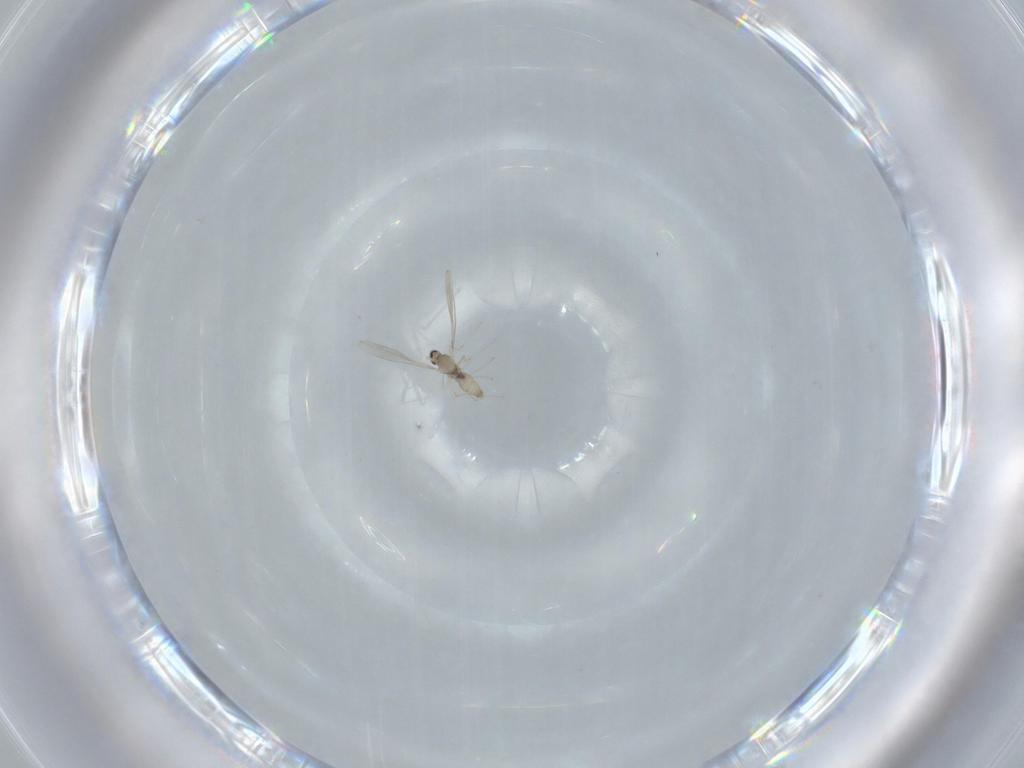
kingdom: Animalia
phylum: Arthropoda
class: Insecta
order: Diptera
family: Cecidomyiidae
